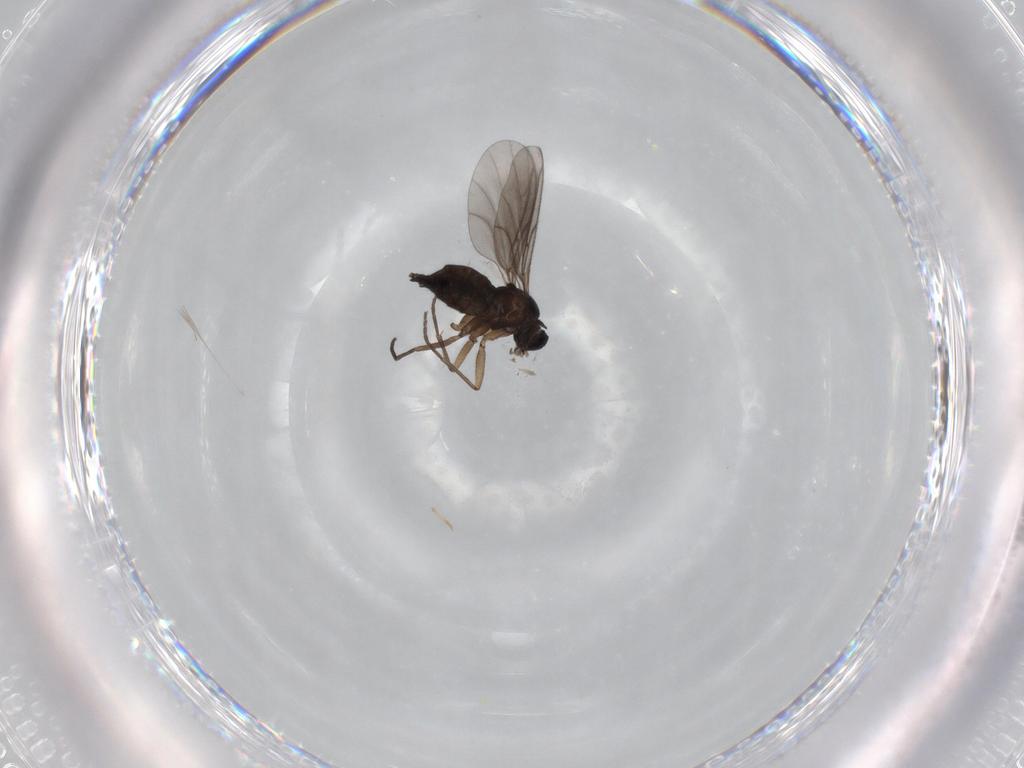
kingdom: Animalia
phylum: Arthropoda
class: Insecta
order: Diptera
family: Sciaridae
